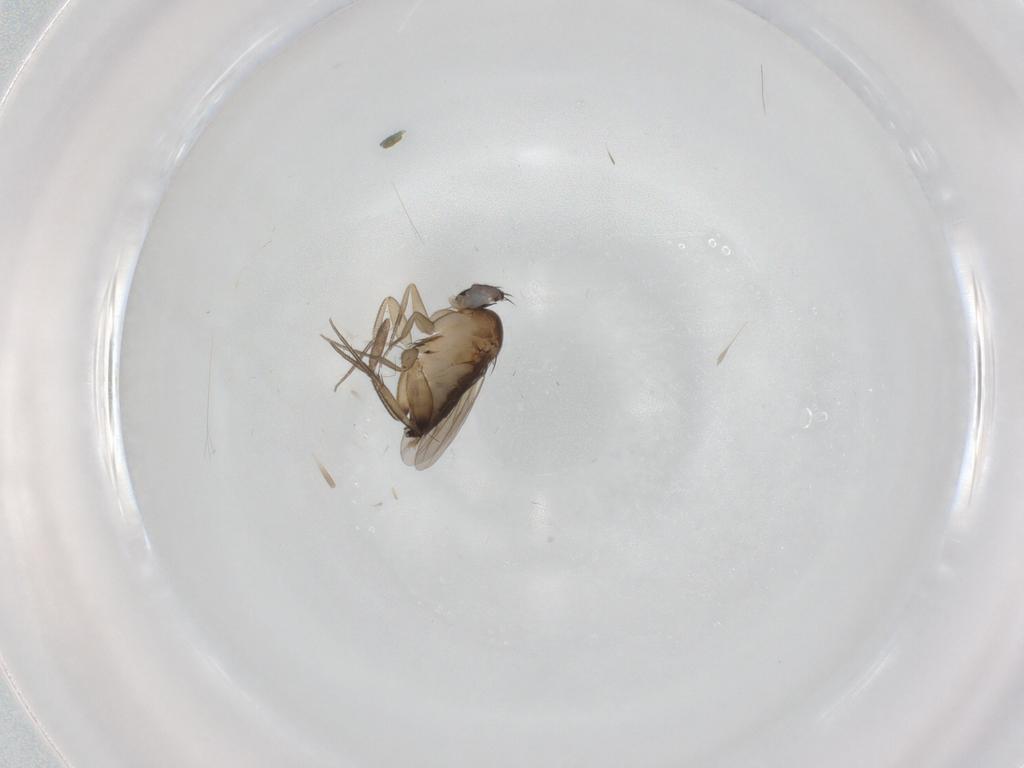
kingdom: Animalia
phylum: Arthropoda
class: Insecta
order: Diptera
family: Phoridae
